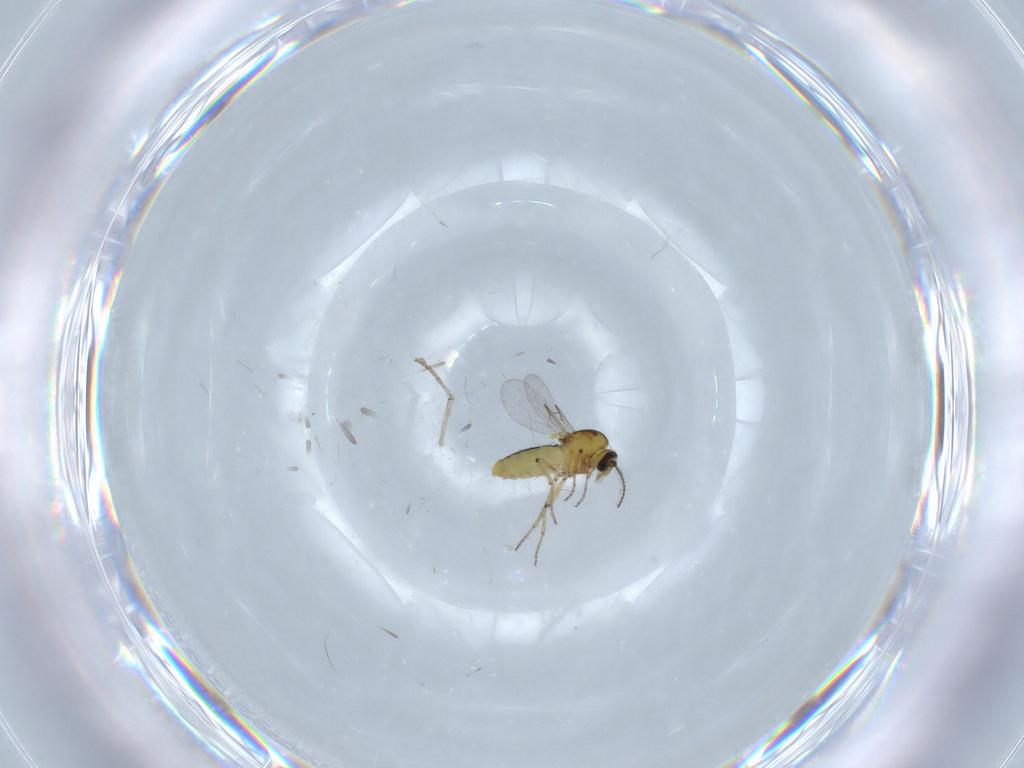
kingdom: Animalia
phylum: Arthropoda
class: Insecta
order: Diptera
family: Ceratopogonidae
